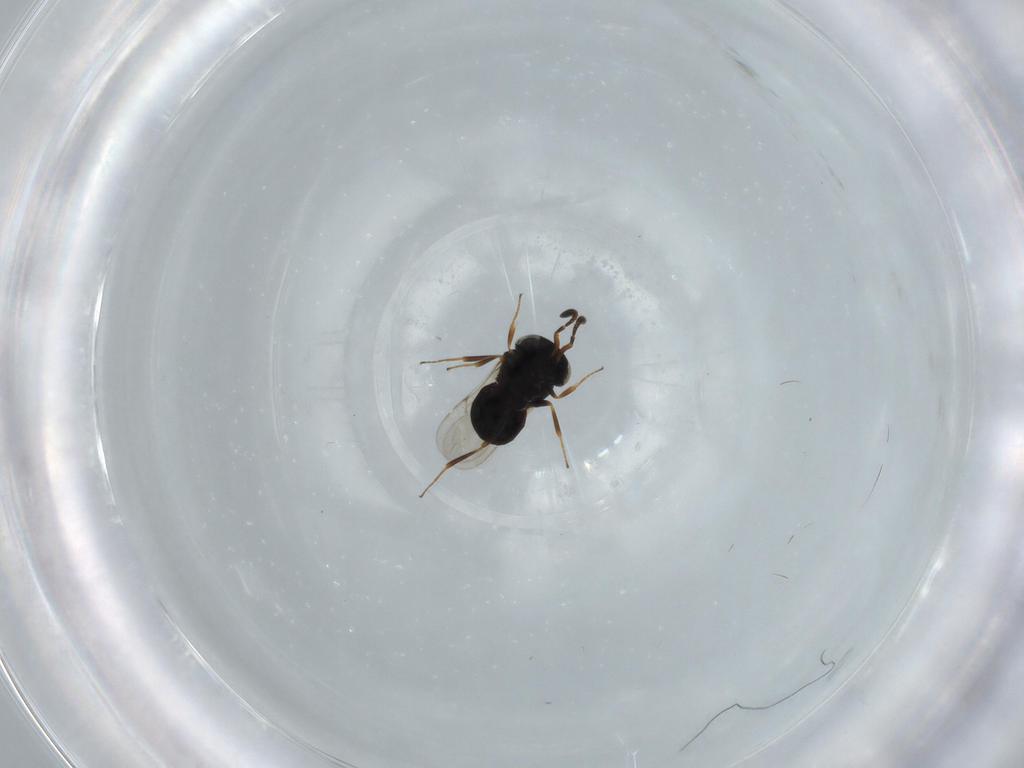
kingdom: Animalia
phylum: Arthropoda
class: Insecta
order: Hymenoptera
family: Scelionidae
